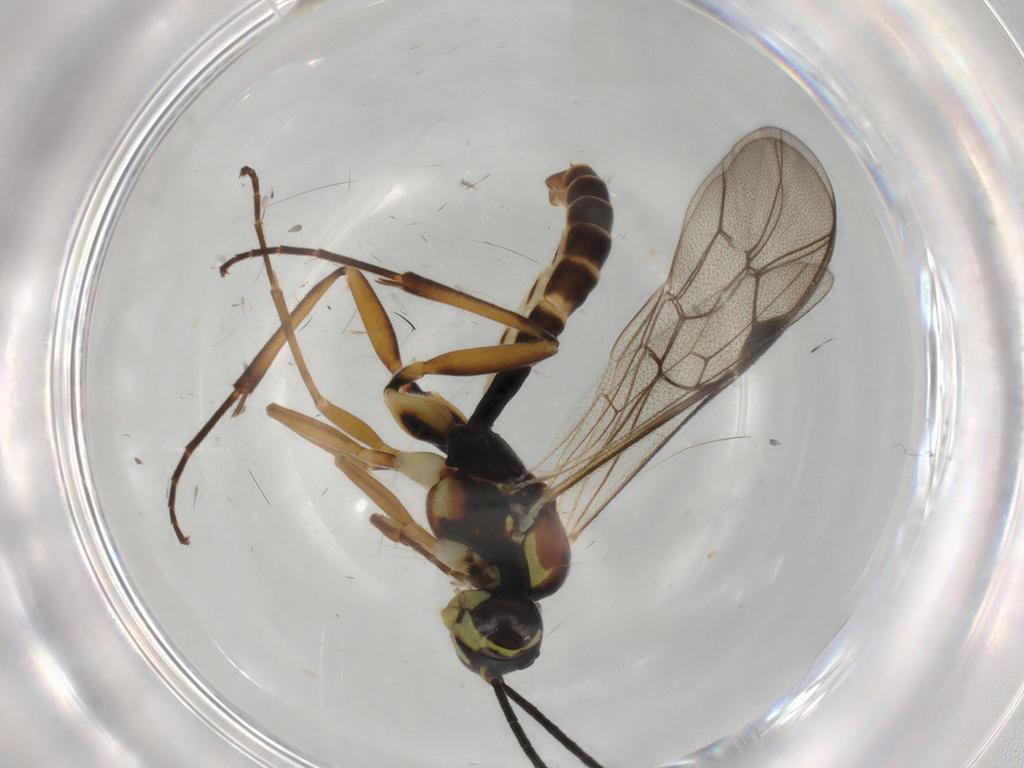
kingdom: Animalia
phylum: Arthropoda
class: Insecta
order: Hymenoptera
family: Ichneumonidae
